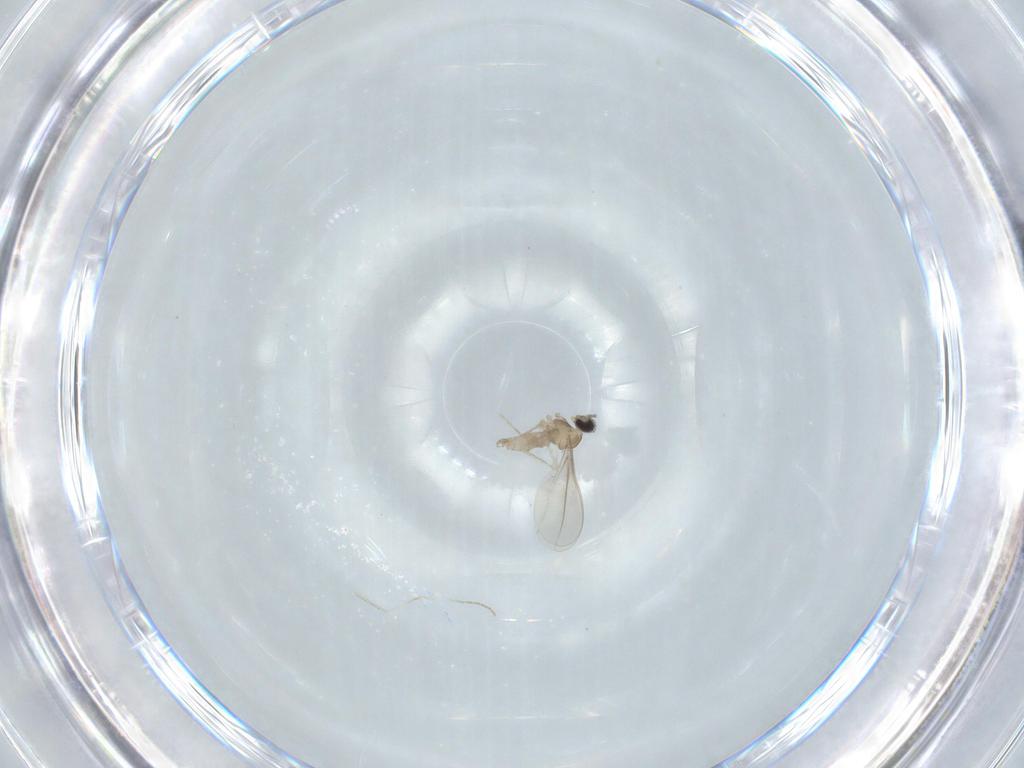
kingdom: Animalia
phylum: Arthropoda
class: Insecta
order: Diptera
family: Cecidomyiidae
